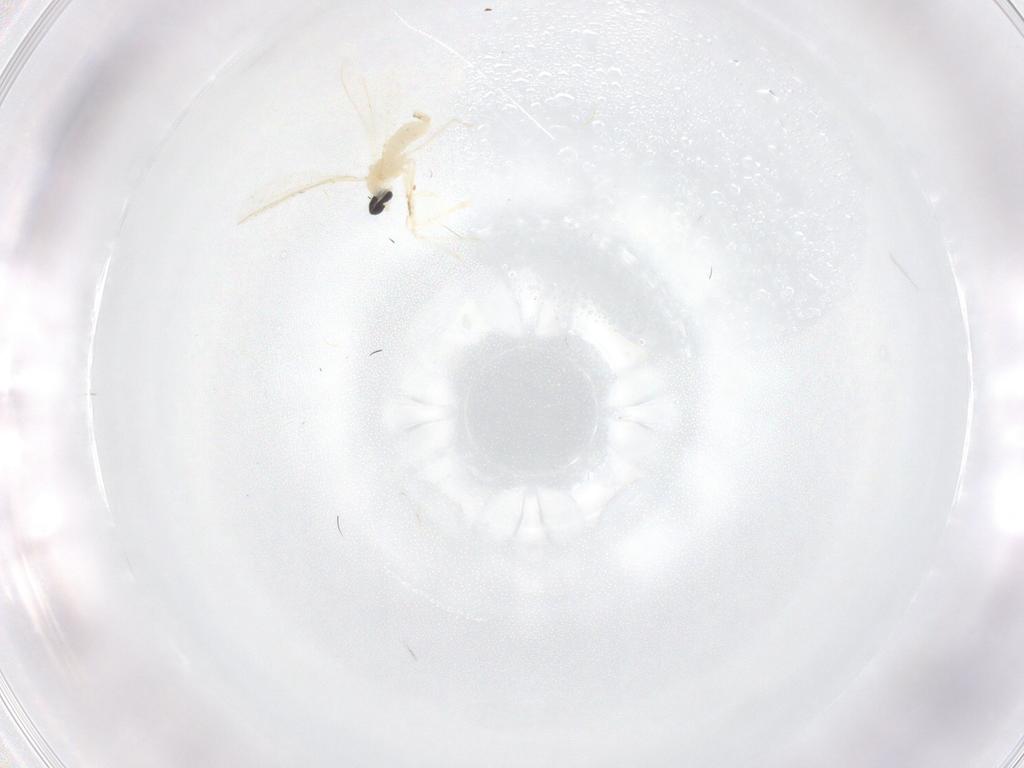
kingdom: Animalia
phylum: Arthropoda
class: Insecta
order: Diptera
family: Cecidomyiidae
